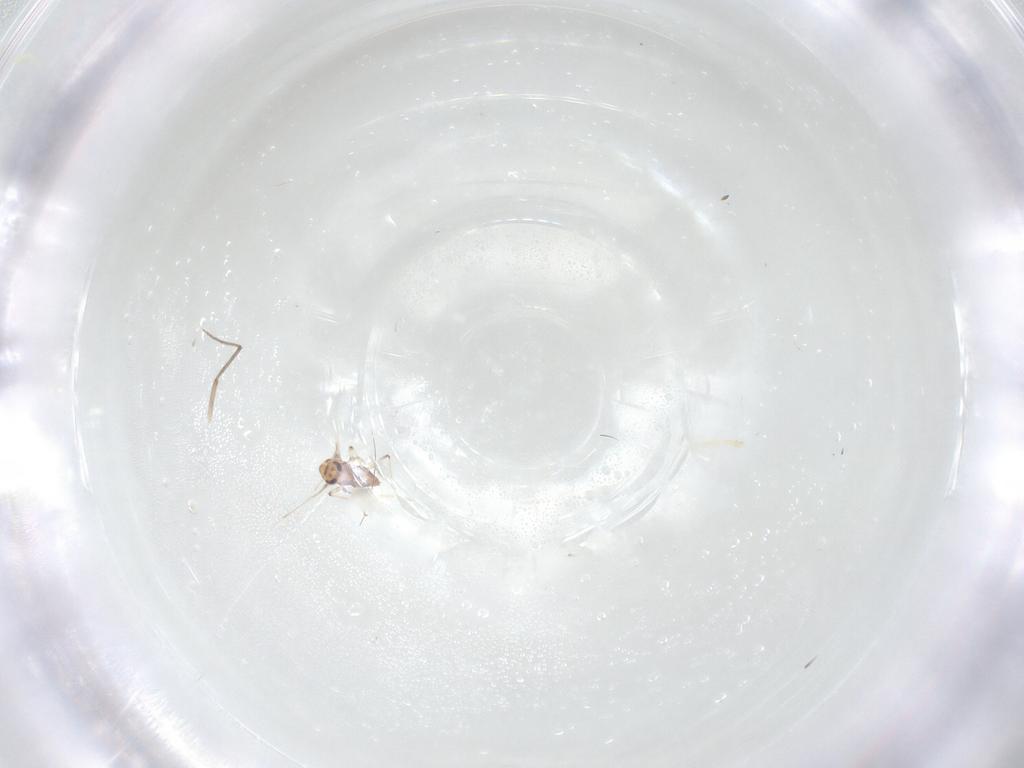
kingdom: Animalia
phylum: Arthropoda
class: Insecta
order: Diptera
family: Chironomidae
